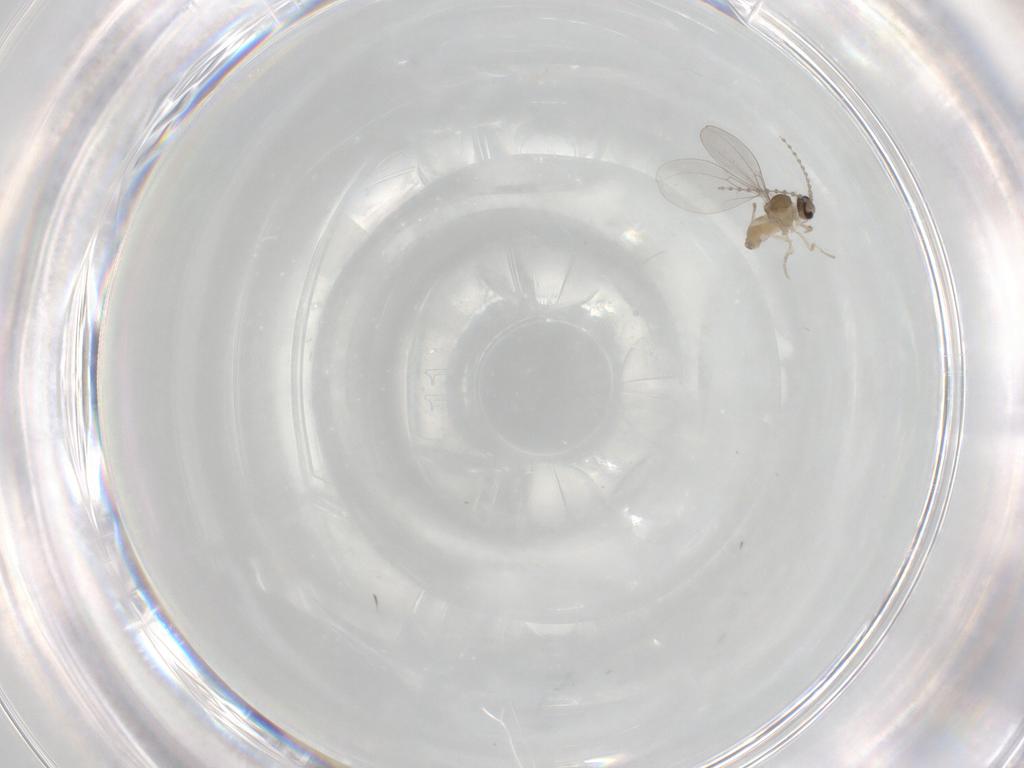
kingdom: Animalia
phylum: Arthropoda
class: Insecta
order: Diptera
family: Cecidomyiidae
